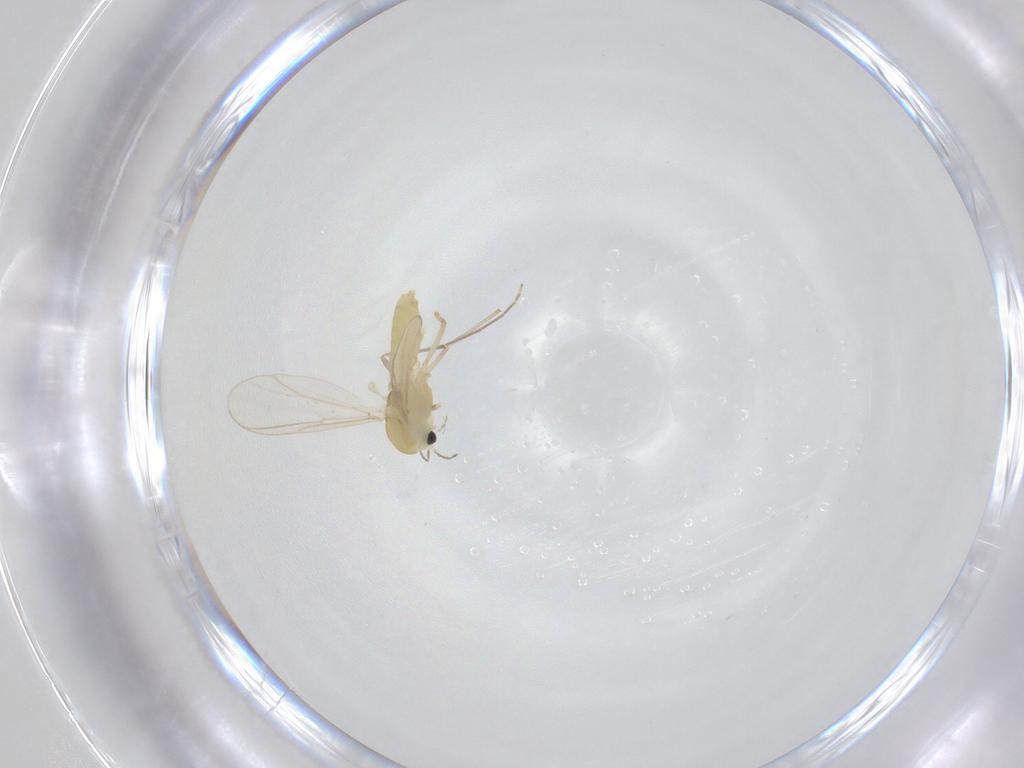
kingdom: Animalia
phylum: Arthropoda
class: Insecta
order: Diptera
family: Chironomidae
